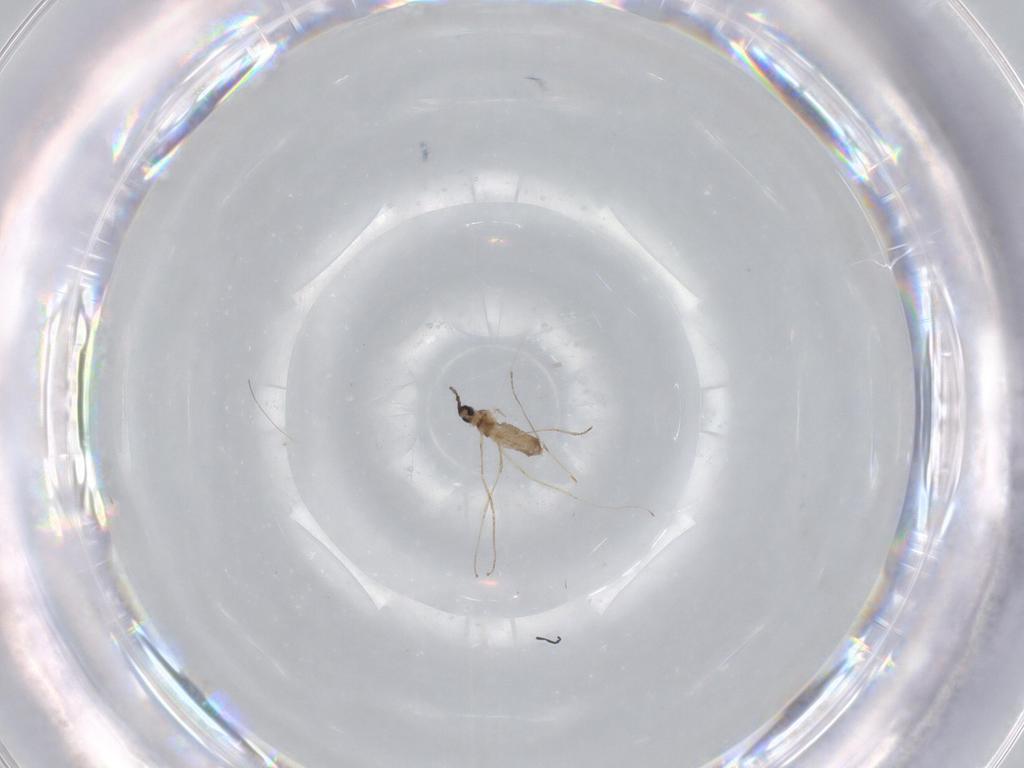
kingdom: Animalia
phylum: Arthropoda
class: Insecta
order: Diptera
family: Cecidomyiidae
